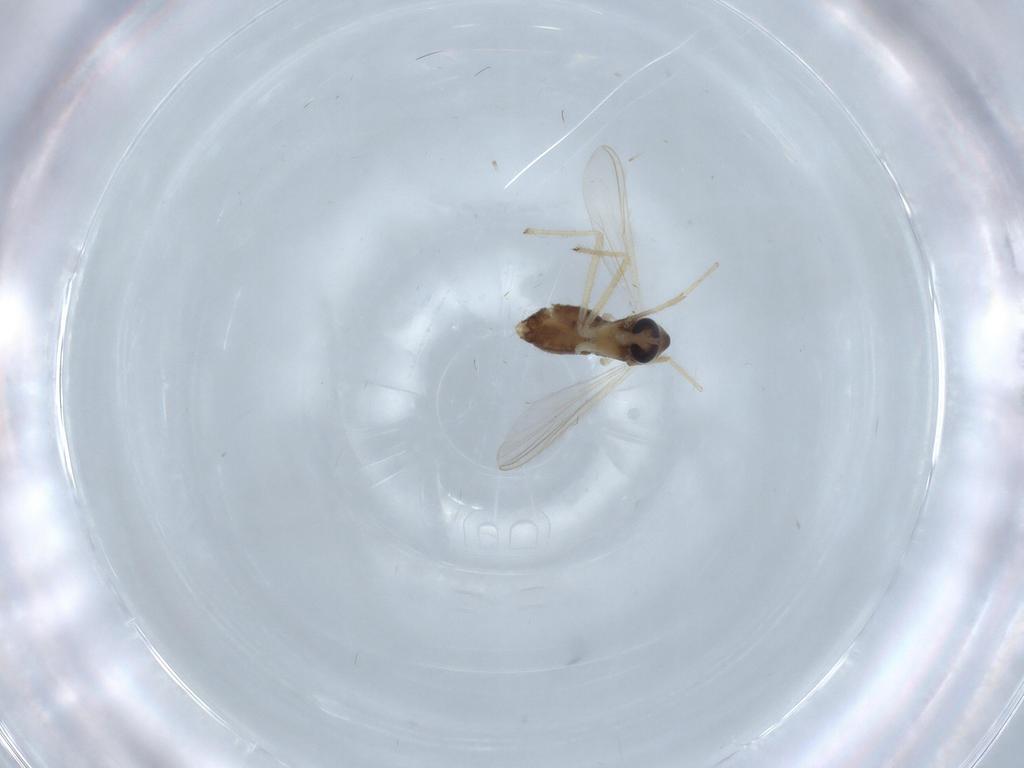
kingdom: Animalia
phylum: Arthropoda
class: Insecta
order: Diptera
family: Chironomidae
